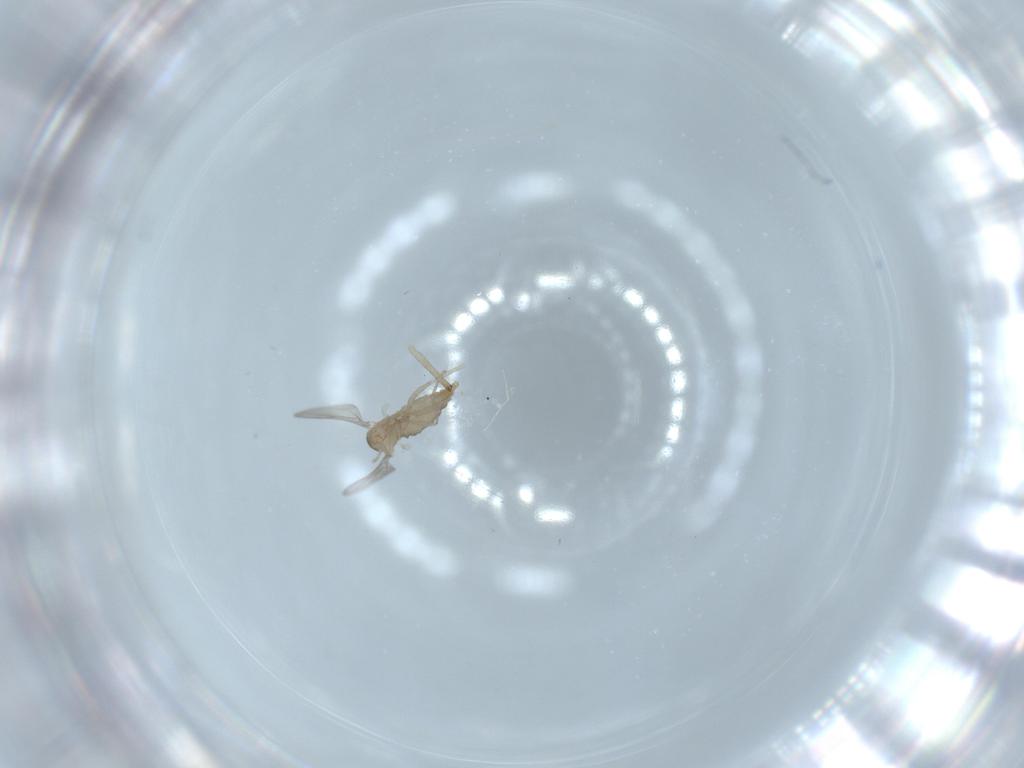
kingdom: Animalia
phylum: Arthropoda
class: Insecta
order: Diptera
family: Cecidomyiidae
